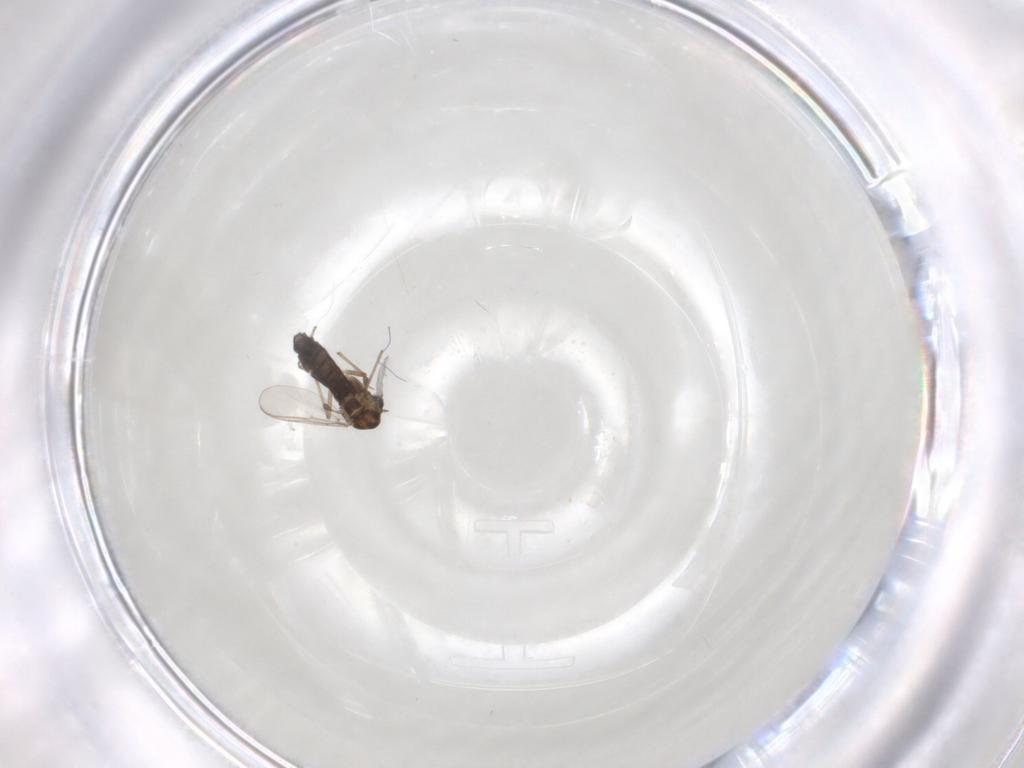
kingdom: Animalia
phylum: Arthropoda
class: Insecta
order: Diptera
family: Chironomidae
